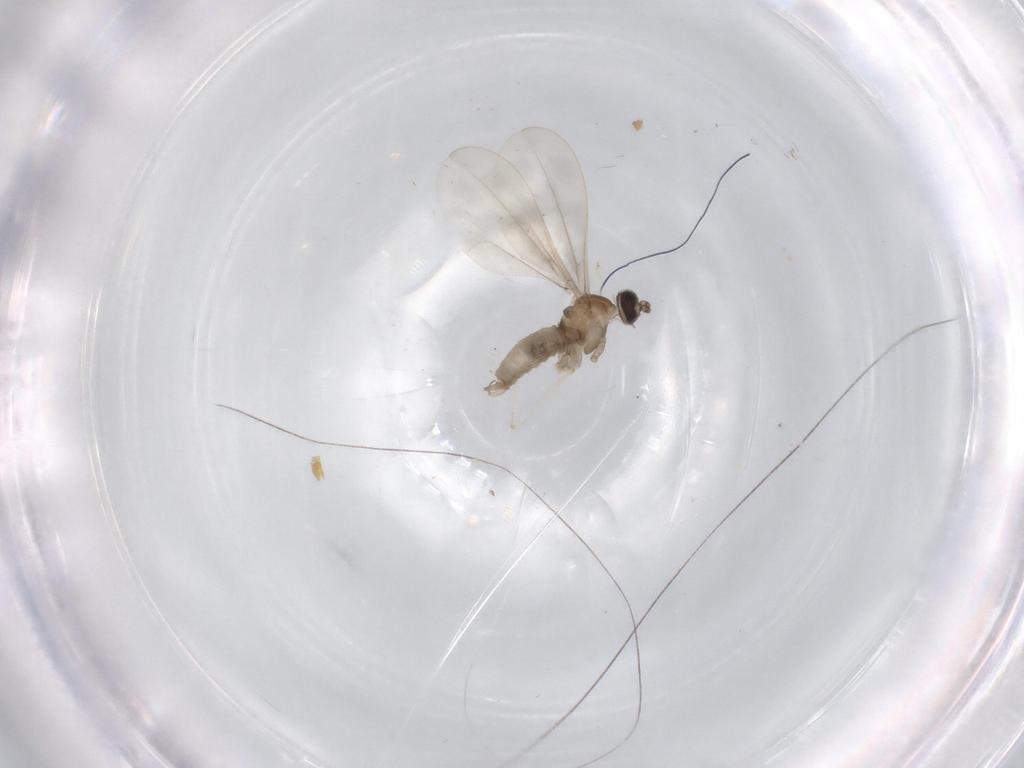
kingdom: Animalia
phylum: Arthropoda
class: Insecta
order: Diptera
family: Cecidomyiidae
